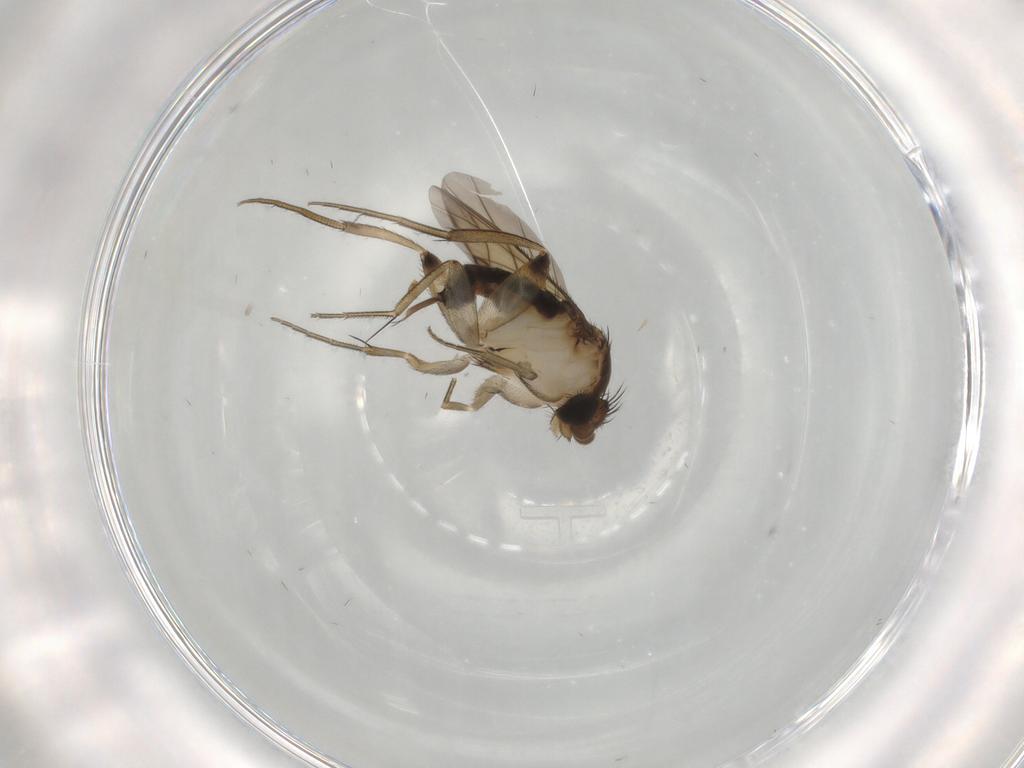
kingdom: Animalia
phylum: Arthropoda
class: Insecta
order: Diptera
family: Phoridae
